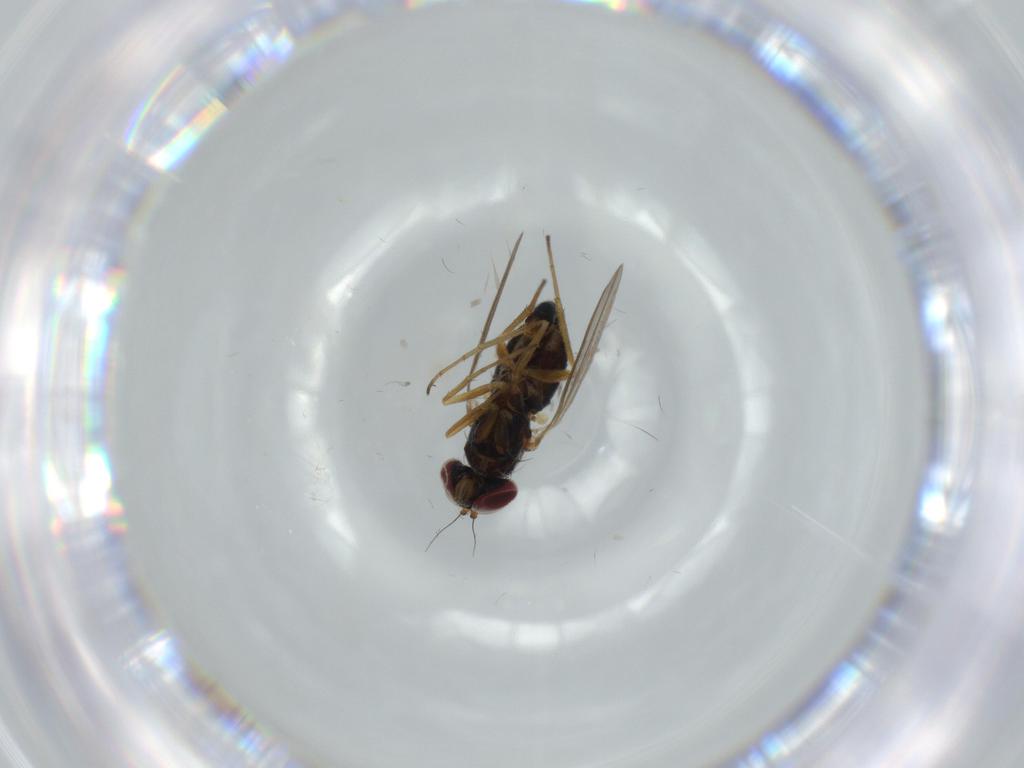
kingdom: Animalia
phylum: Arthropoda
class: Insecta
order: Diptera
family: Dolichopodidae
